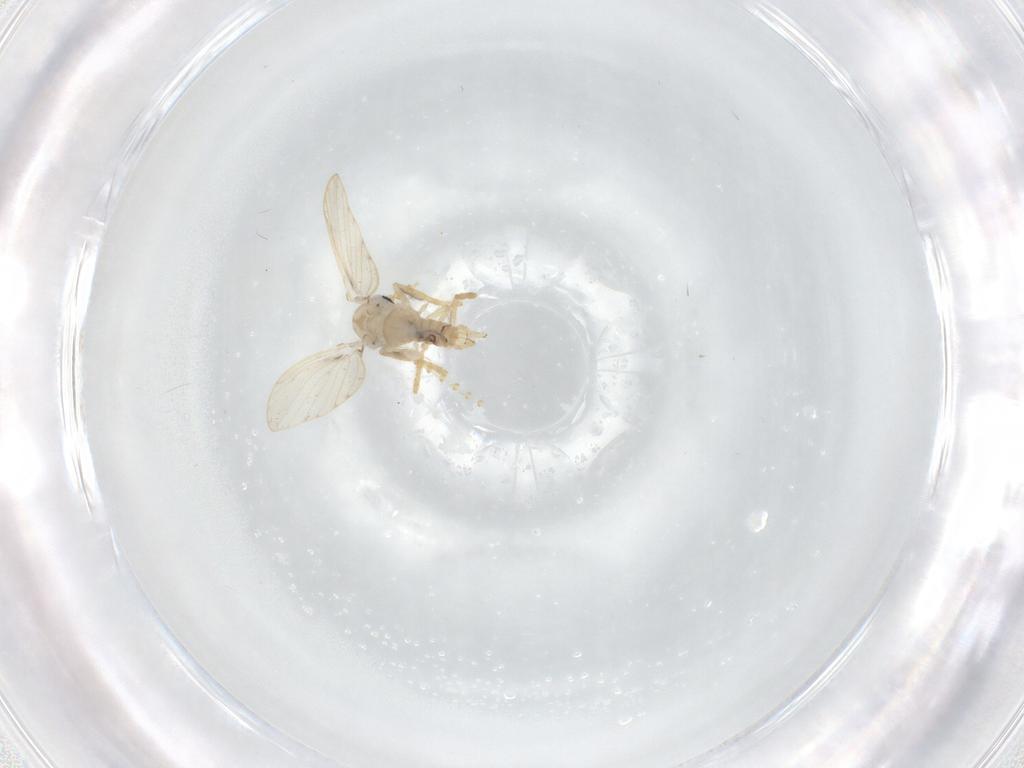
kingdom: Animalia
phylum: Arthropoda
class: Insecta
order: Diptera
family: Psychodidae
